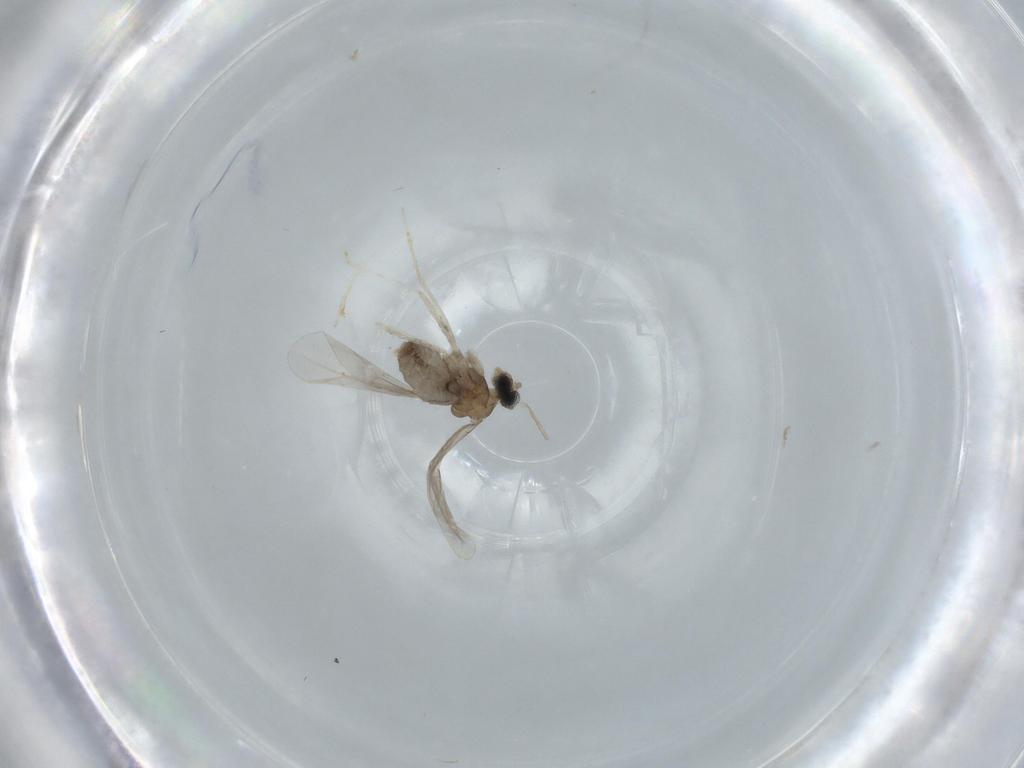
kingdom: Animalia
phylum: Arthropoda
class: Insecta
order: Diptera
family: Cecidomyiidae
